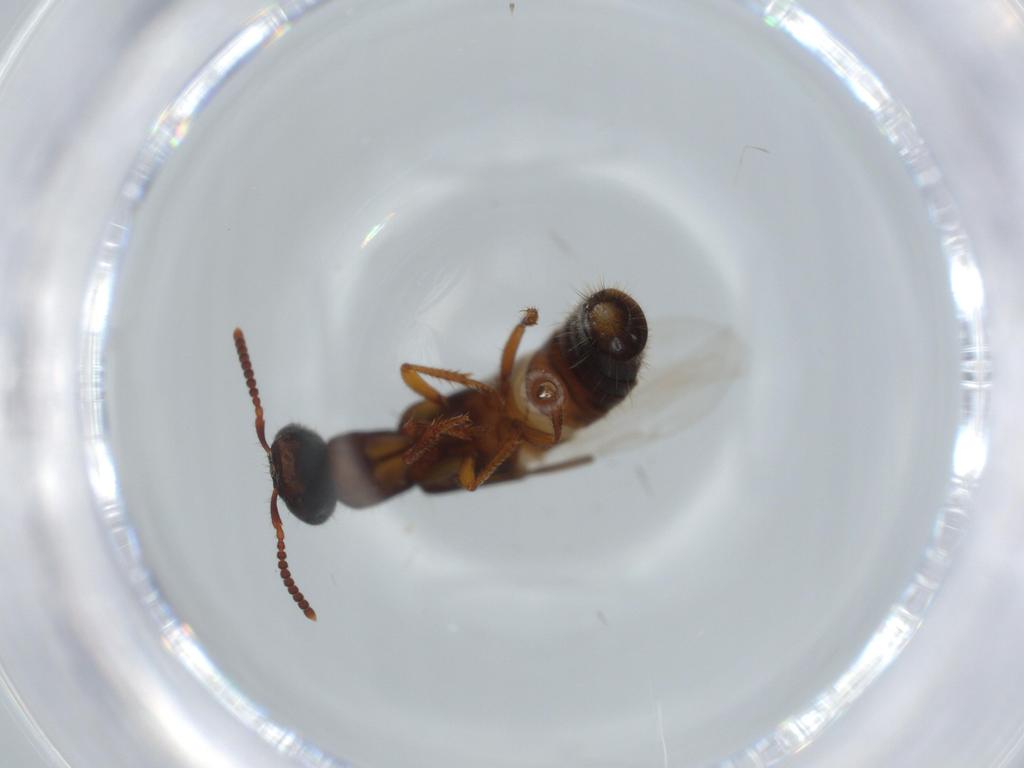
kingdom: Animalia
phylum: Arthropoda
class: Insecta
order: Coleoptera
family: Staphylinidae
